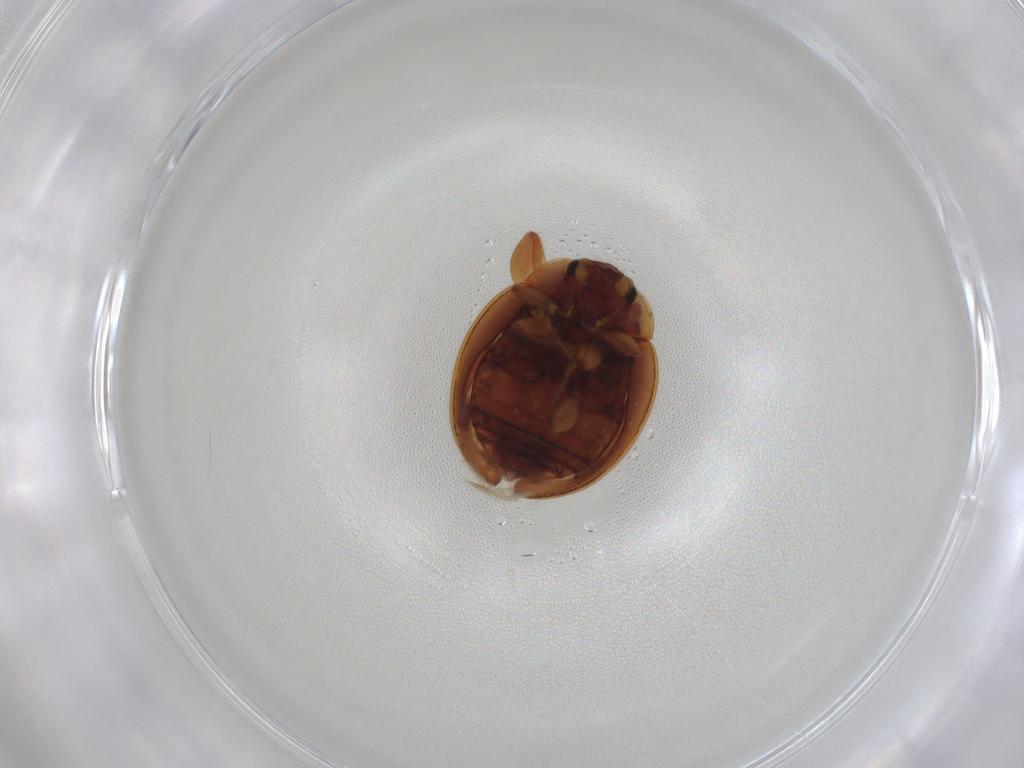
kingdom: Animalia
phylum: Arthropoda
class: Insecta
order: Coleoptera
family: Coccinellidae
